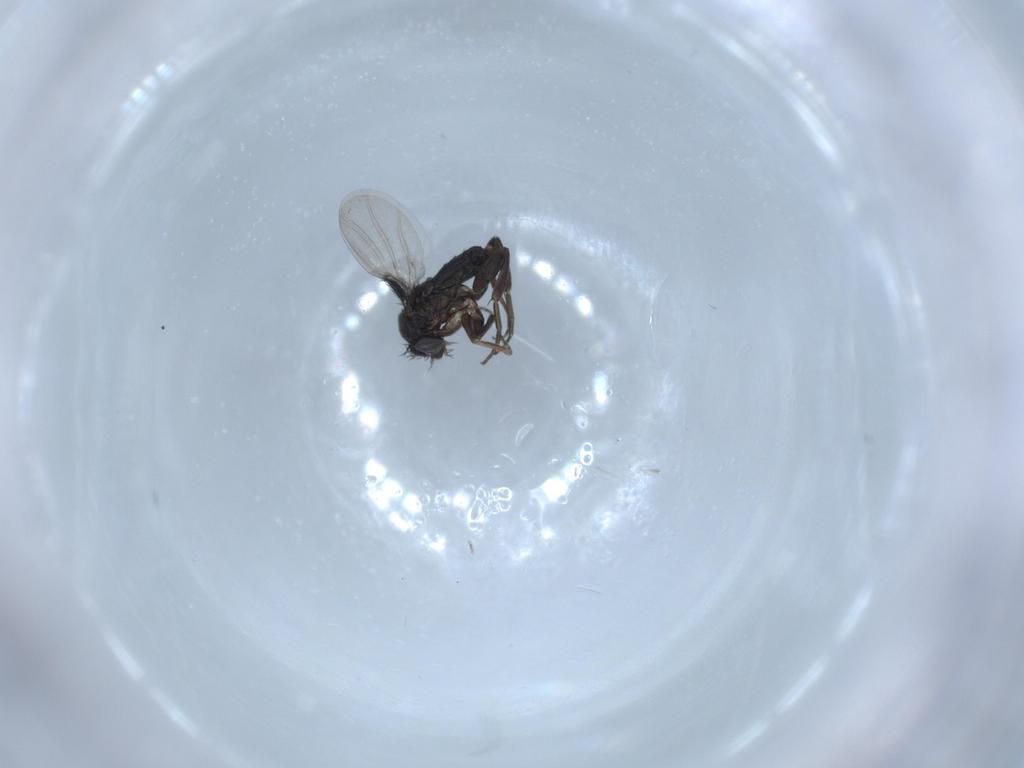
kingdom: Animalia
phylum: Arthropoda
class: Insecta
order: Diptera
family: Phoridae
